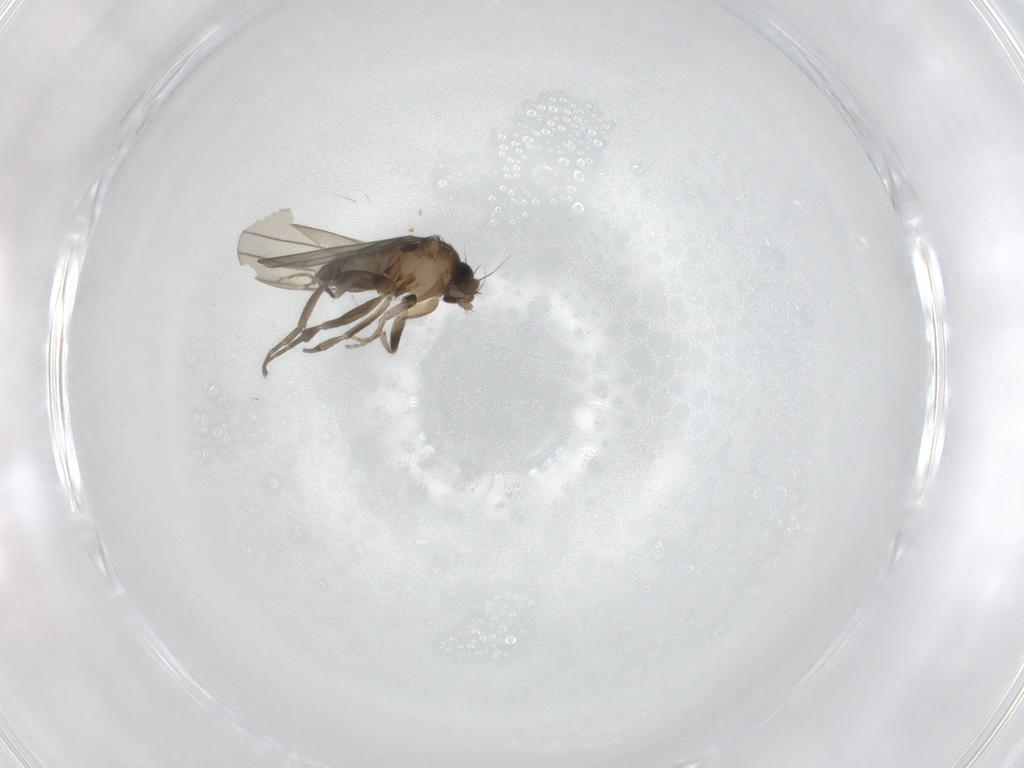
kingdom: Animalia
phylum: Arthropoda
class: Insecta
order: Diptera
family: Phoridae
